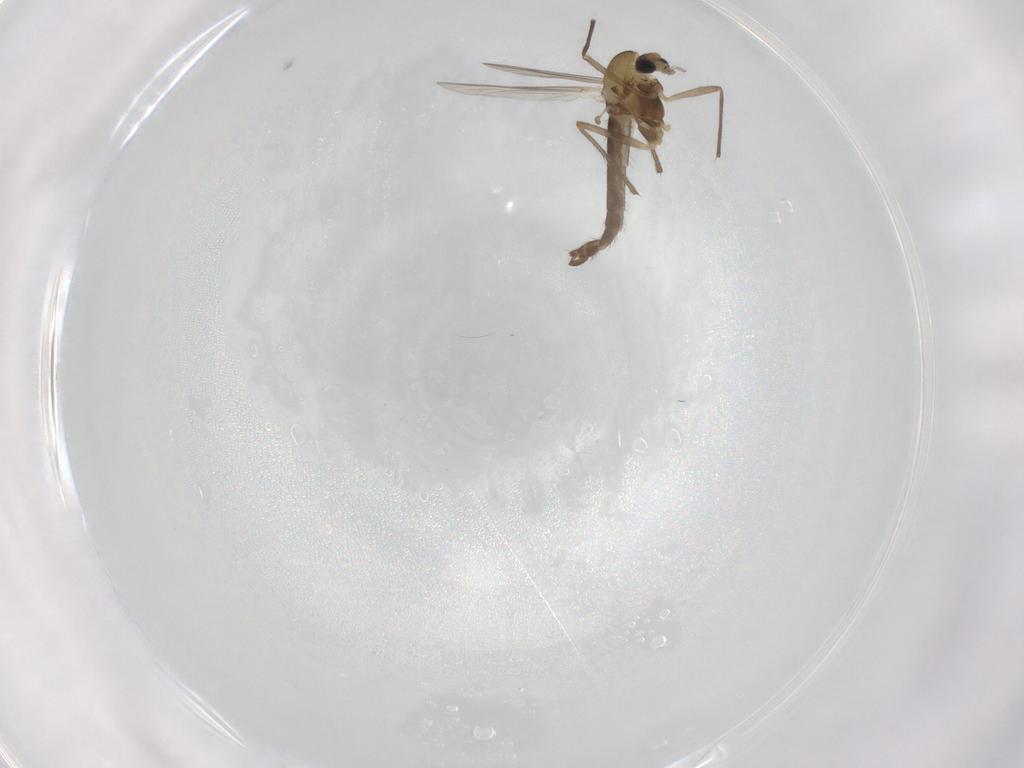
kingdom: Animalia
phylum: Arthropoda
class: Insecta
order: Diptera
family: Chironomidae
